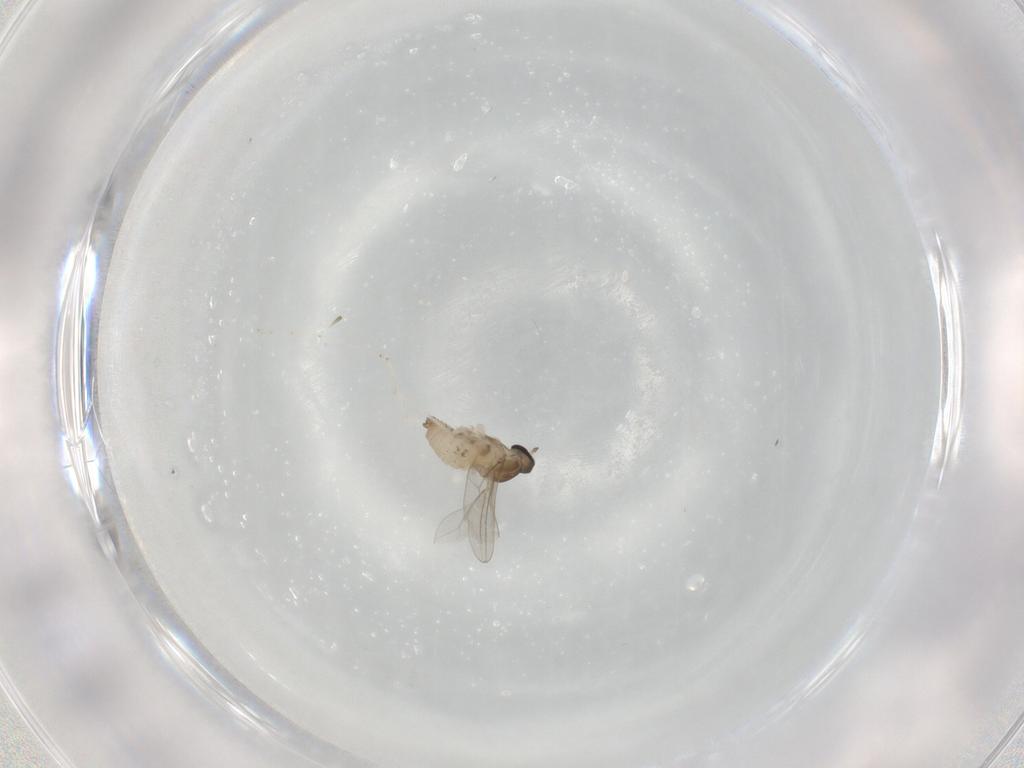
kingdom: Animalia
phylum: Arthropoda
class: Insecta
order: Diptera
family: Cecidomyiidae
